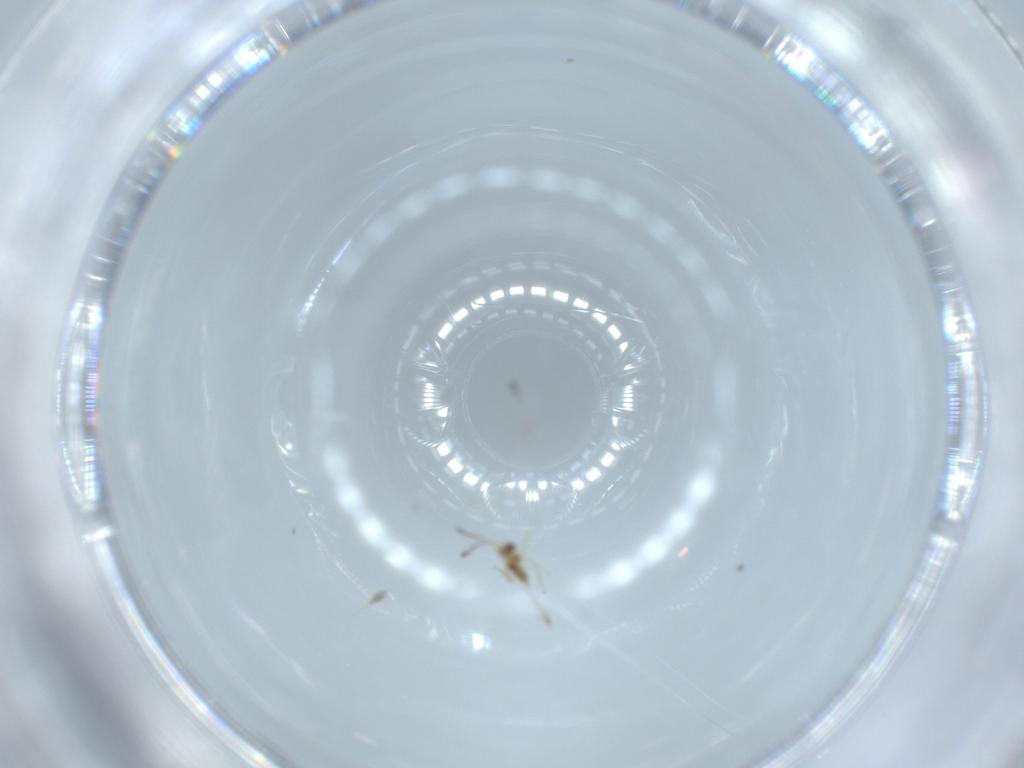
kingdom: Animalia
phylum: Arthropoda
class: Insecta
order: Hymenoptera
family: Mymaridae
